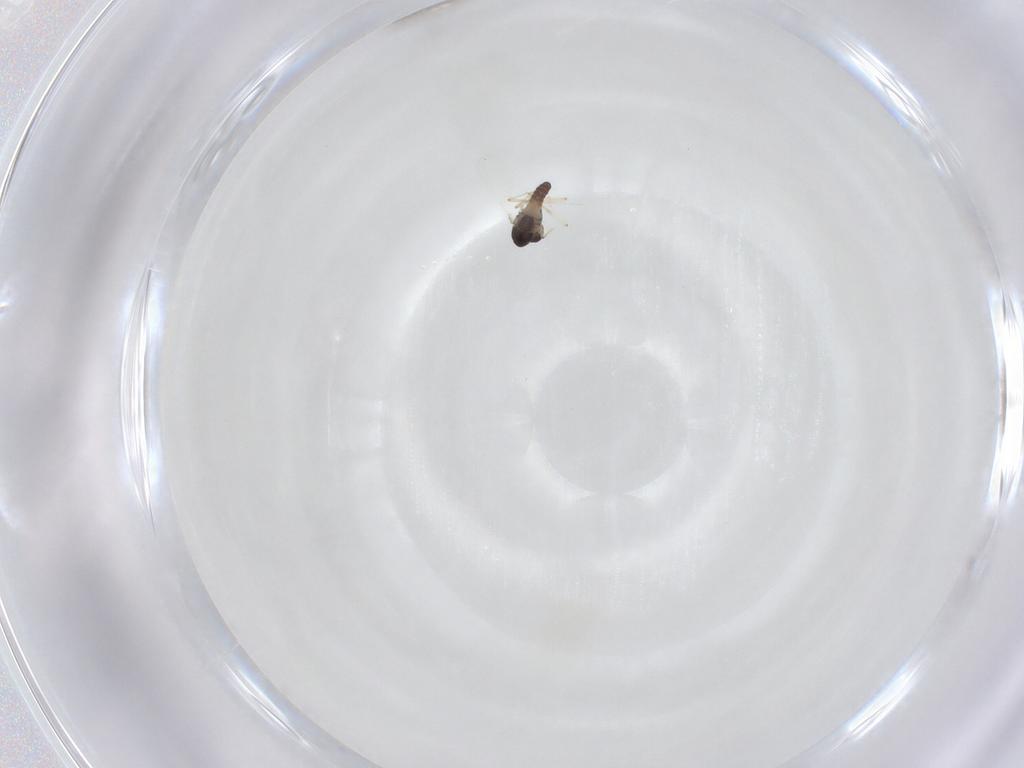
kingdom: Animalia
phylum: Arthropoda
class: Insecta
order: Diptera
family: Chironomidae
